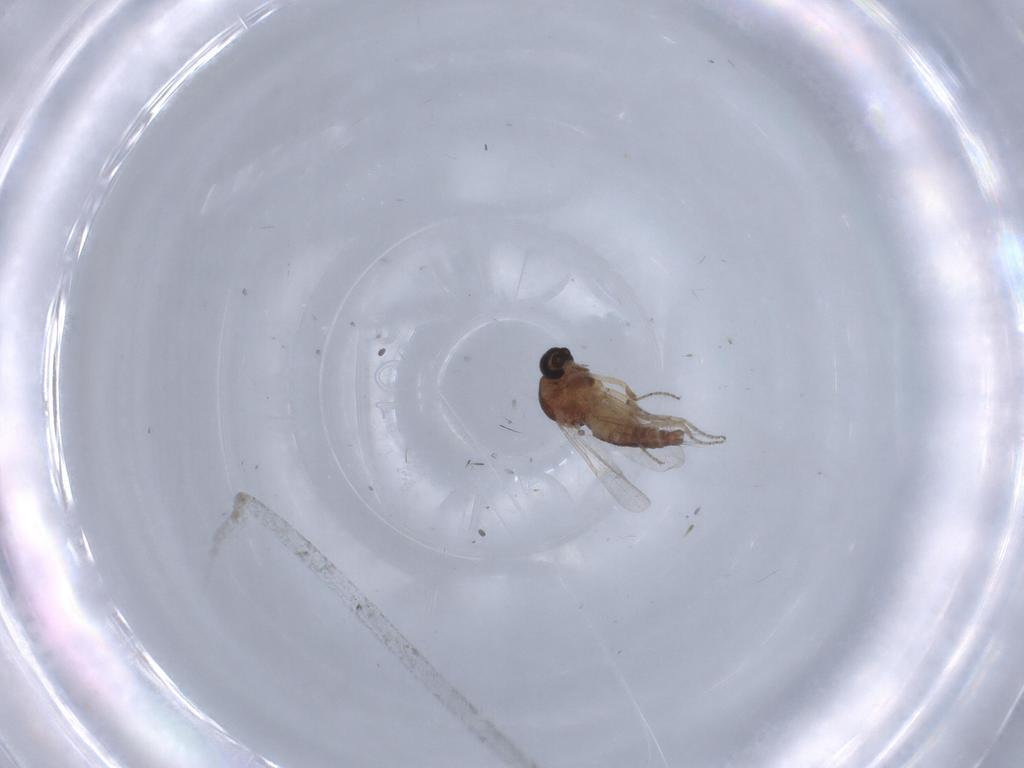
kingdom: Animalia
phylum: Arthropoda
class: Insecta
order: Diptera
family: Ceratopogonidae
